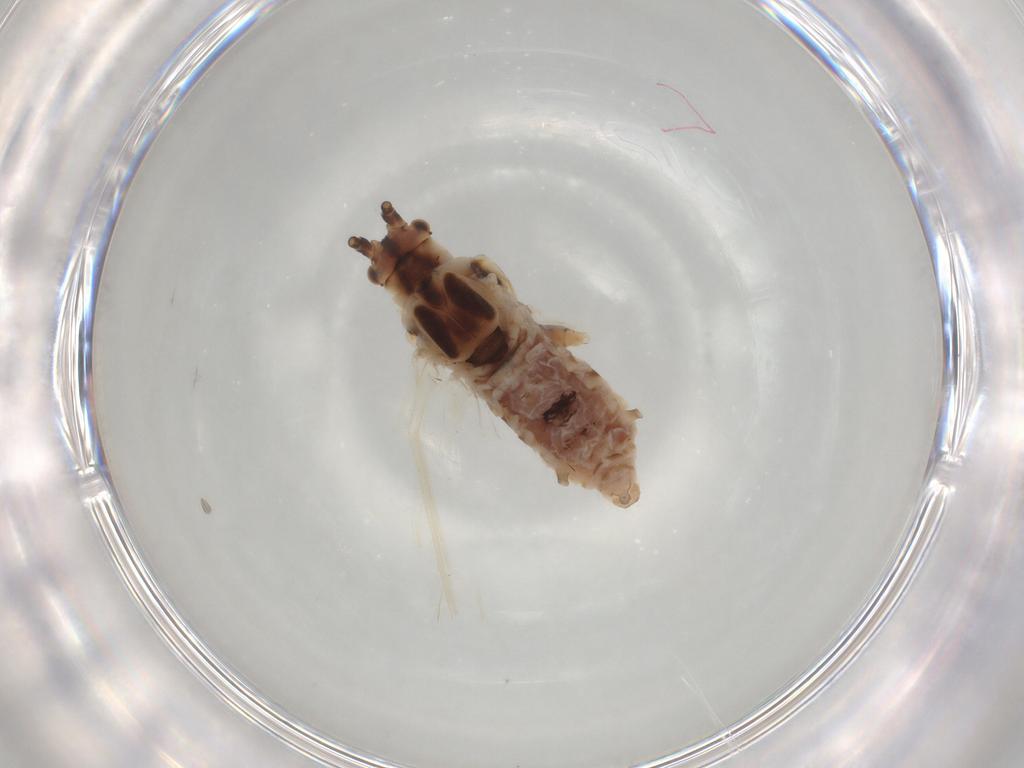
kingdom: Animalia
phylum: Arthropoda
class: Insecta
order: Hemiptera
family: Aphididae
